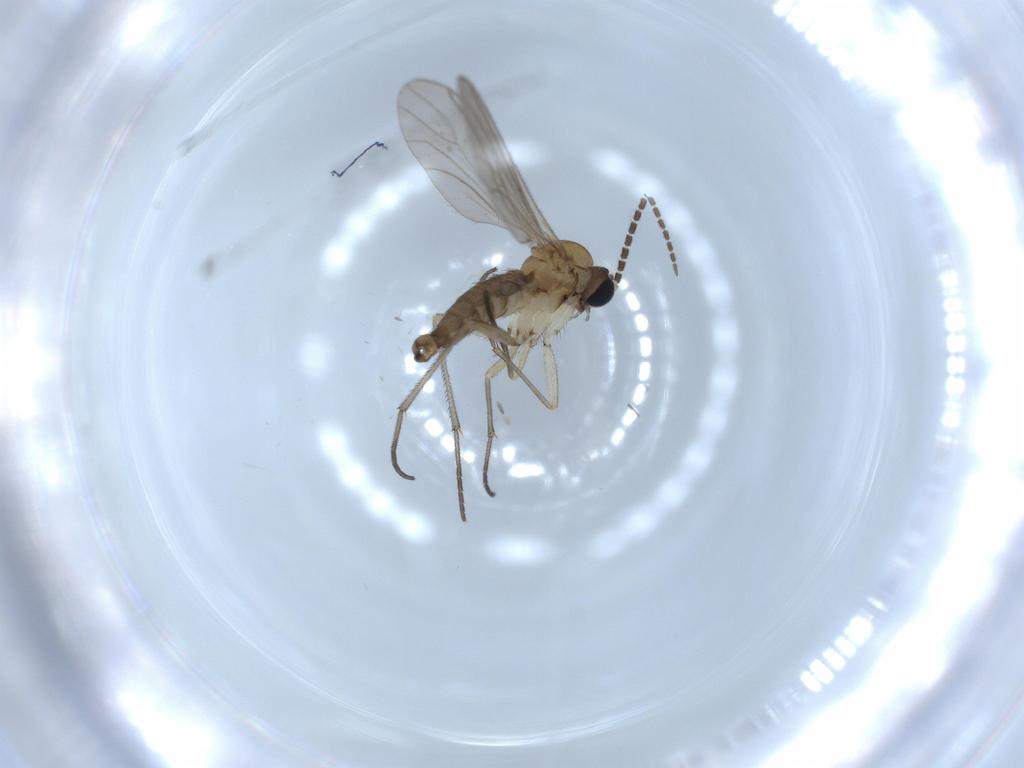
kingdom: Animalia
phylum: Arthropoda
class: Insecta
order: Diptera
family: Sciaridae
